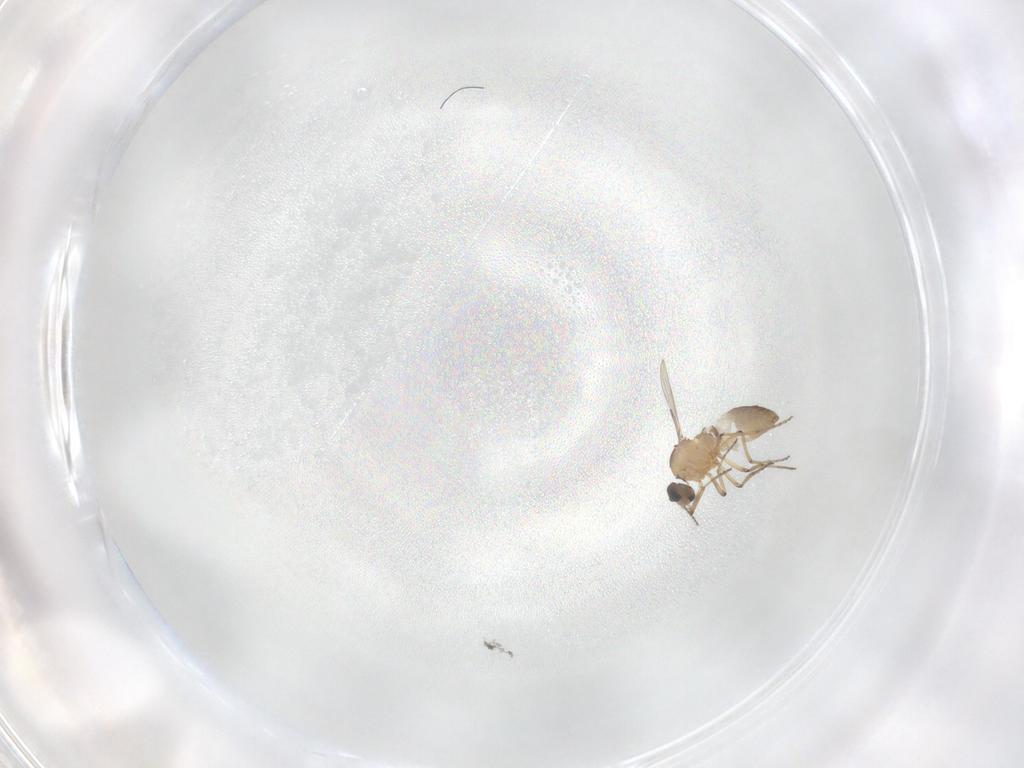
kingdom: Animalia
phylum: Arthropoda
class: Insecta
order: Diptera
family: Ceratopogonidae
